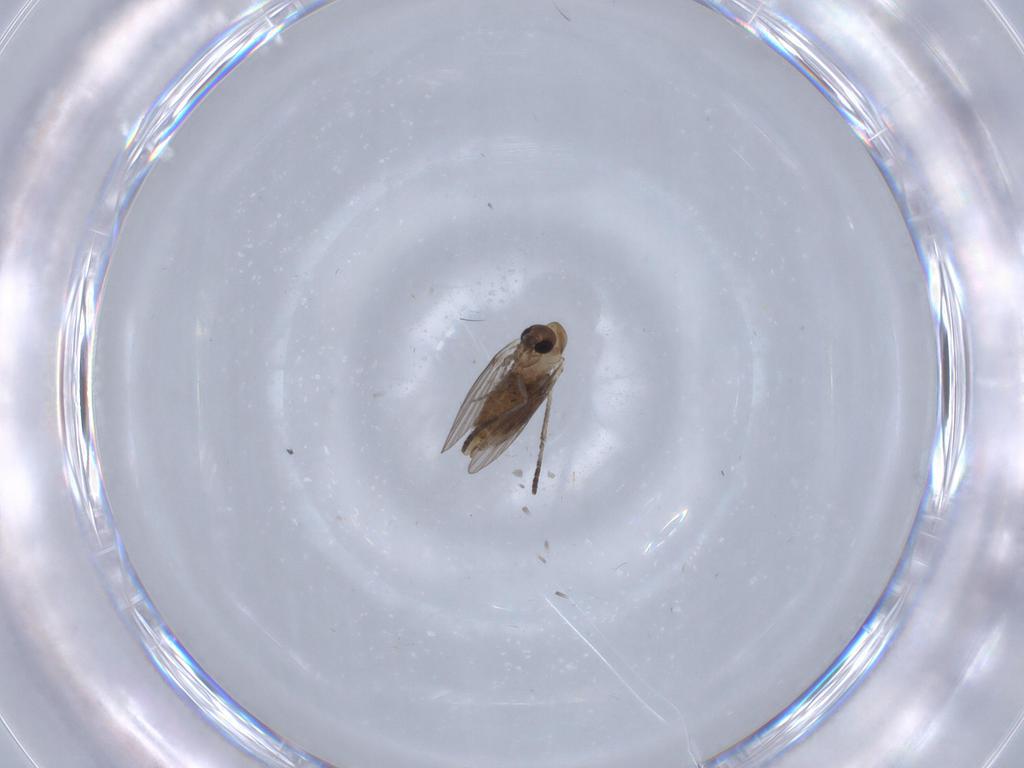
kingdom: Animalia
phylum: Arthropoda
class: Insecta
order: Diptera
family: Psychodidae
